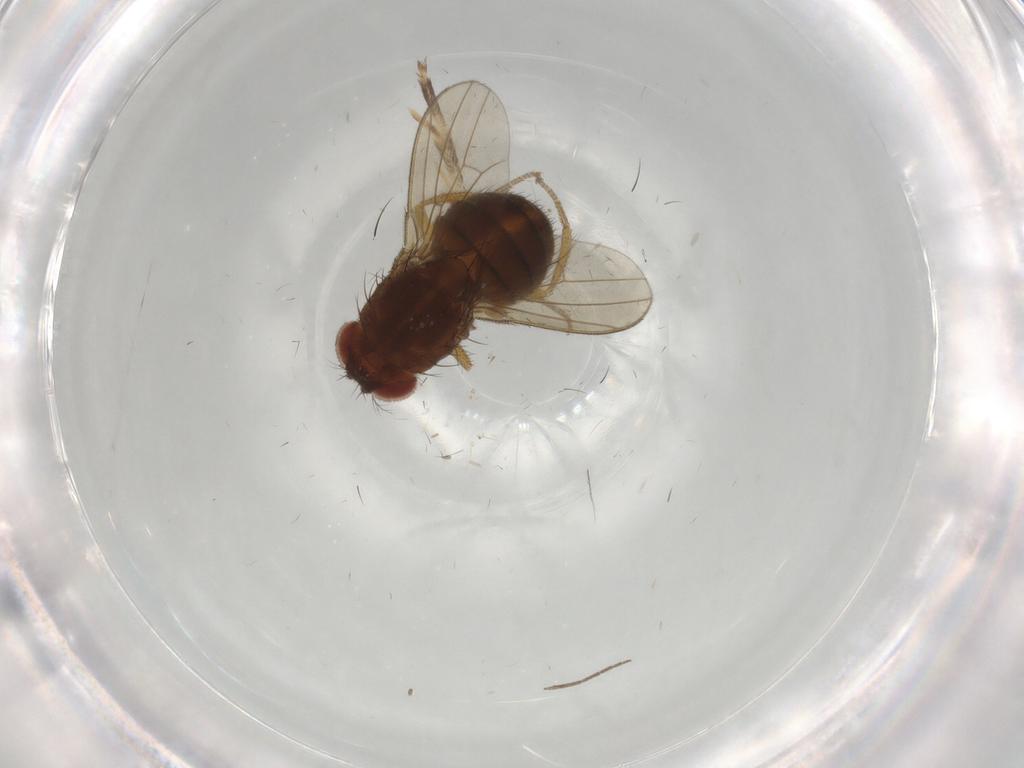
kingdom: Animalia
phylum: Arthropoda
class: Insecta
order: Diptera
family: Drosophilidae
